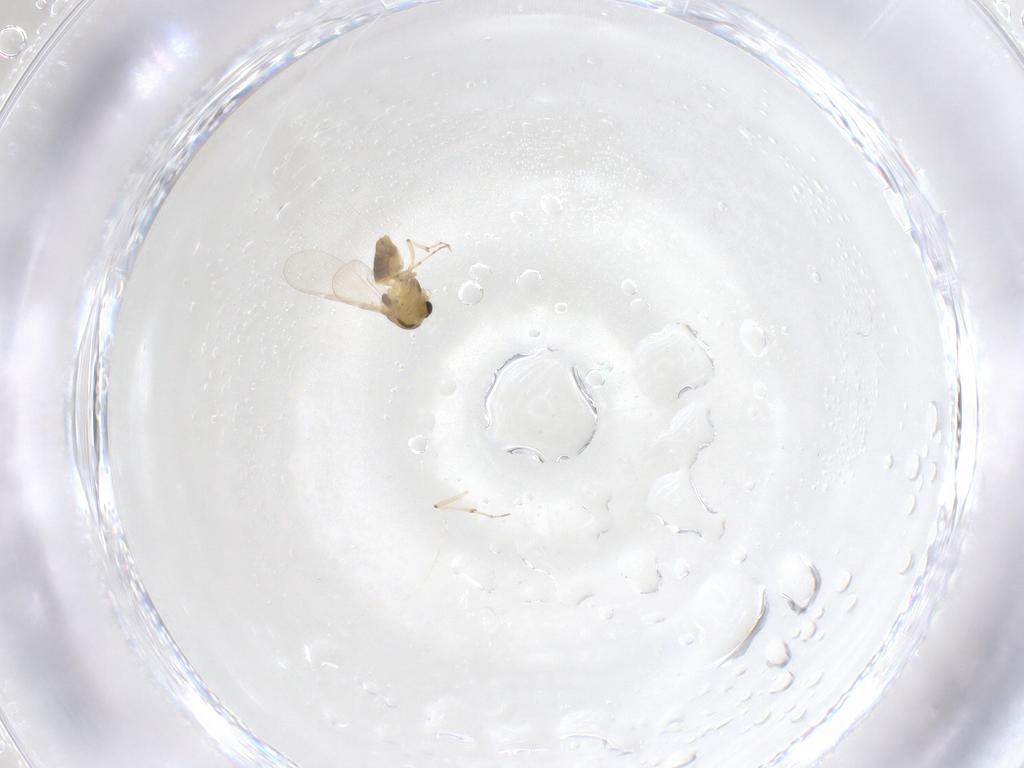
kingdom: Animalia
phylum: Arthropoda
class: Insecta
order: Diptera
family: Chironomidae
